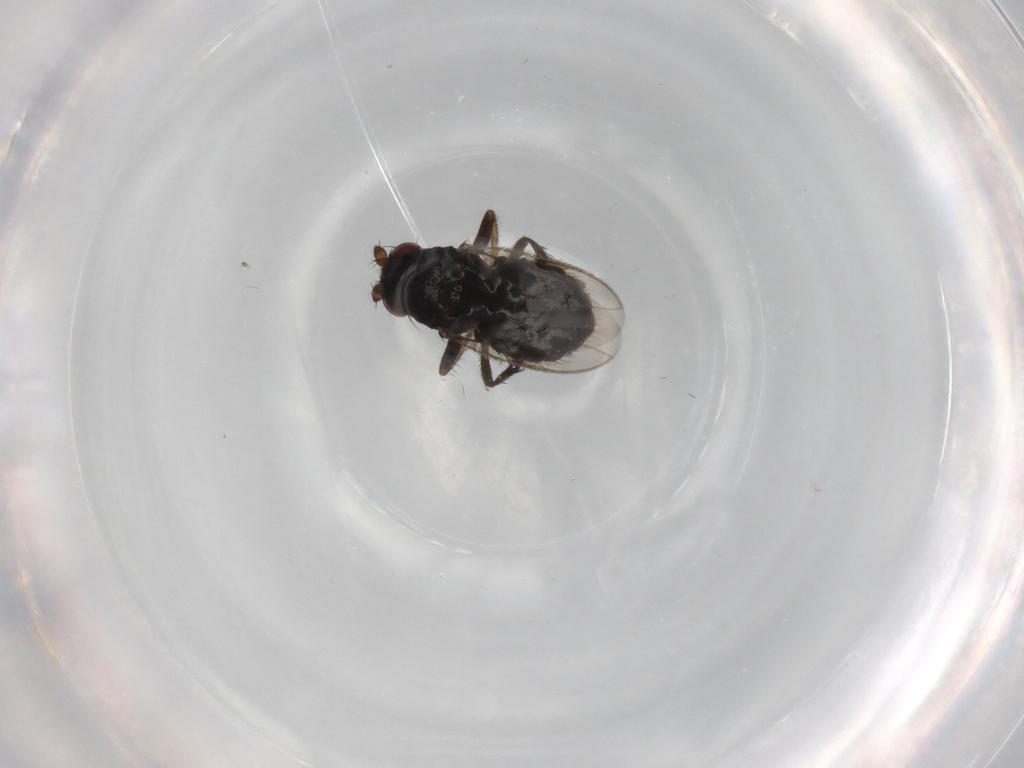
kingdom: Animalia
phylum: Arthropoda
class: Insecta
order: Diptera
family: Sphaeroceridae
